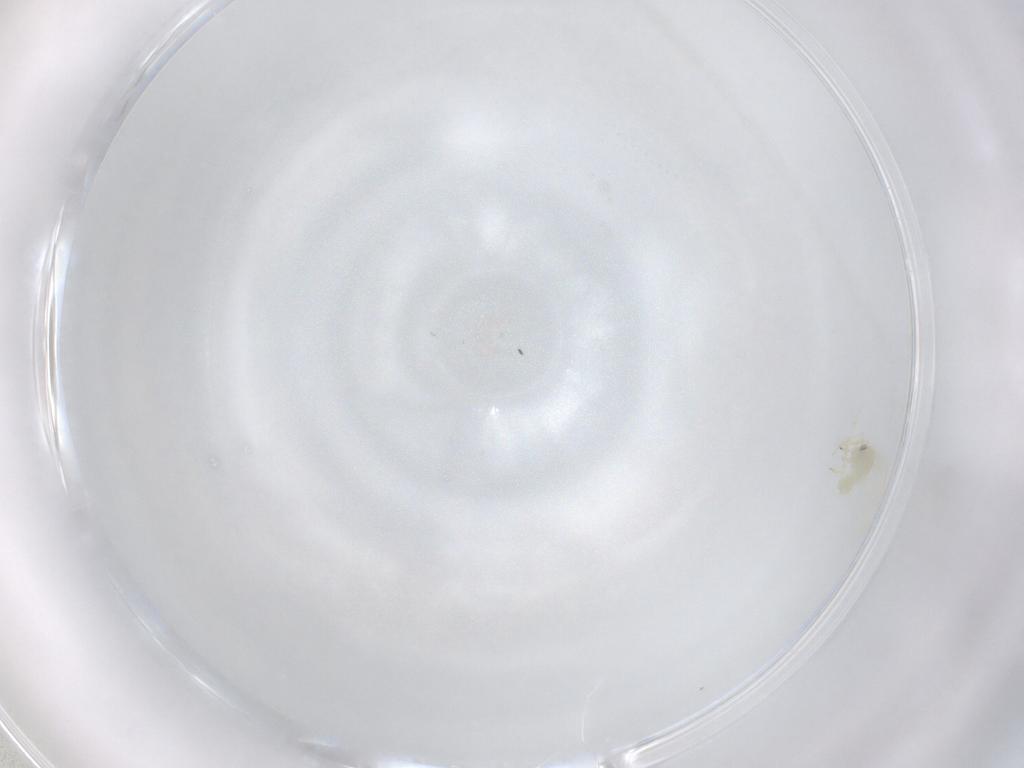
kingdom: Animalia
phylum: Arthropoda
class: Insecta
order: Hemiptera
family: Aleyrodidae
